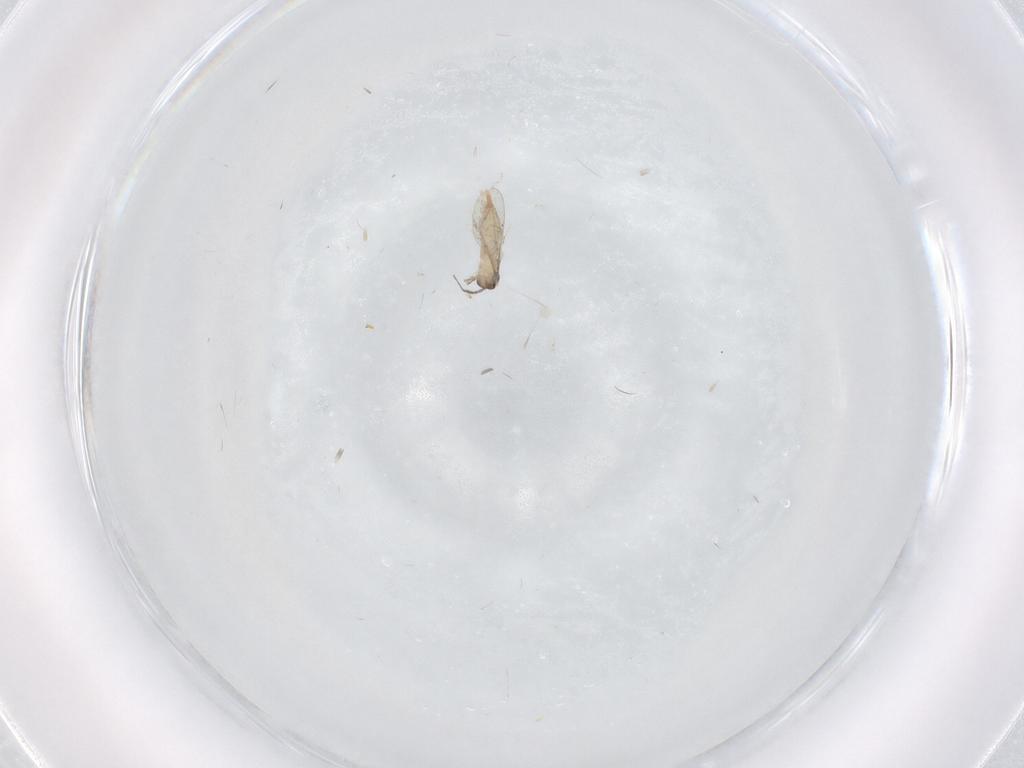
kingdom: Animalia
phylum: Arthropoda
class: Insecta
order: Diptera
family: Limoniidae
